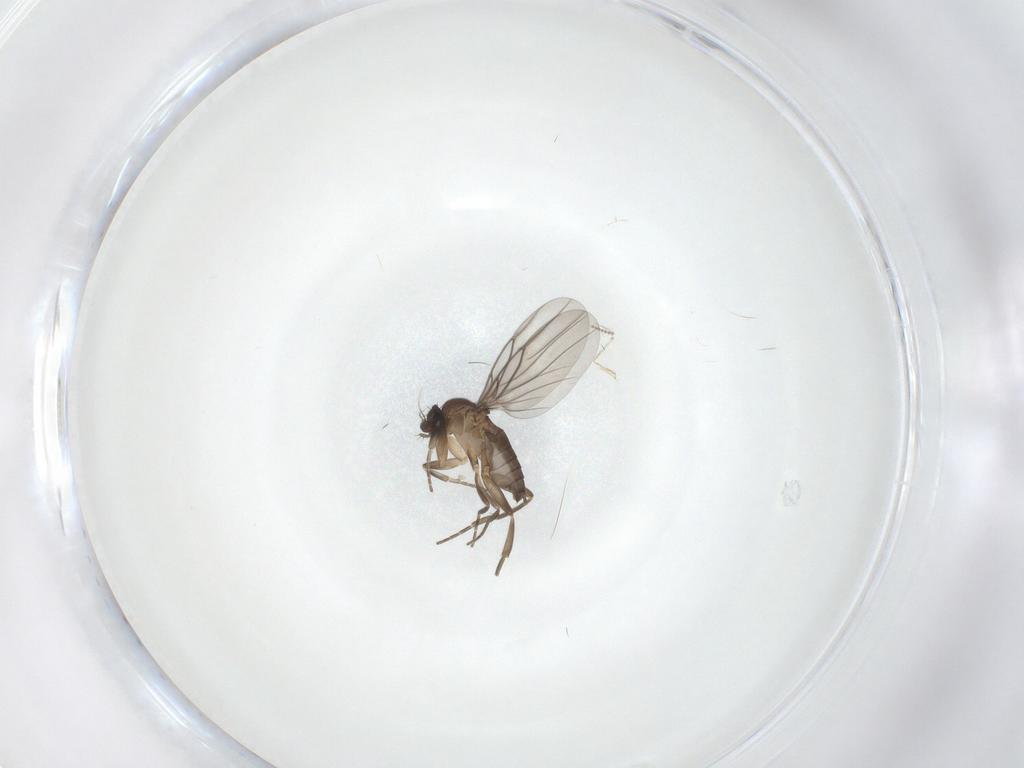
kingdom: Animalia
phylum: Arthropoda
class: Insecta
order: Diptera
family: Psychodidae
